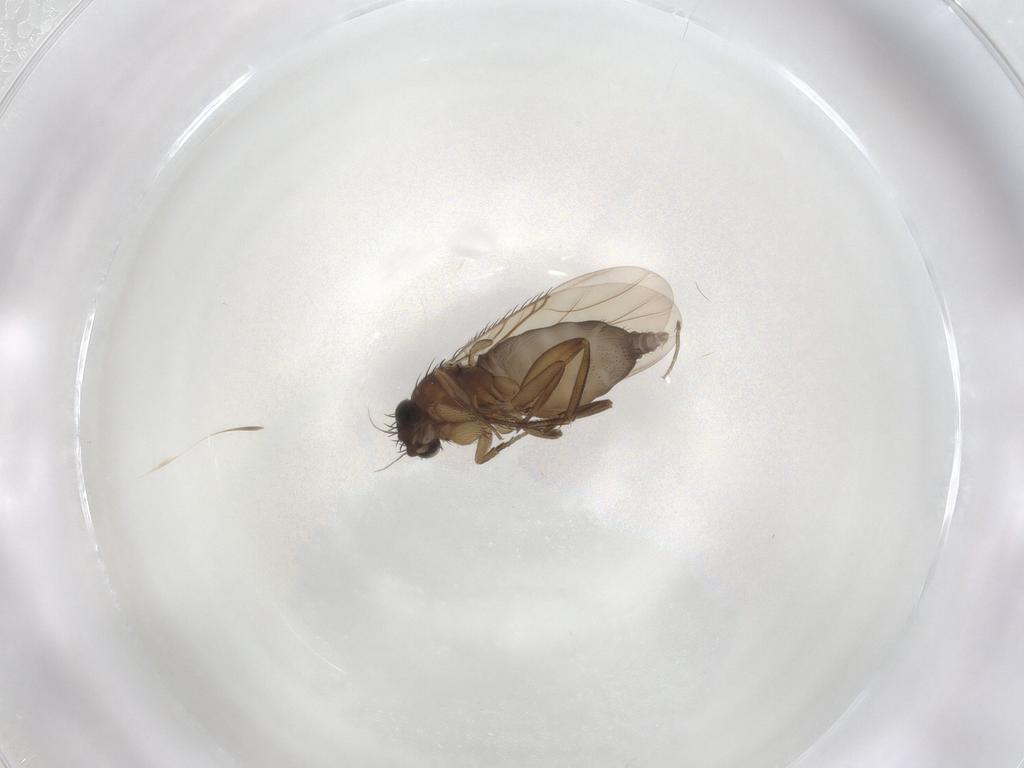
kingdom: Animalia
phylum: Arthropoda
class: Insecta
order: Diptera
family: Phoridae
